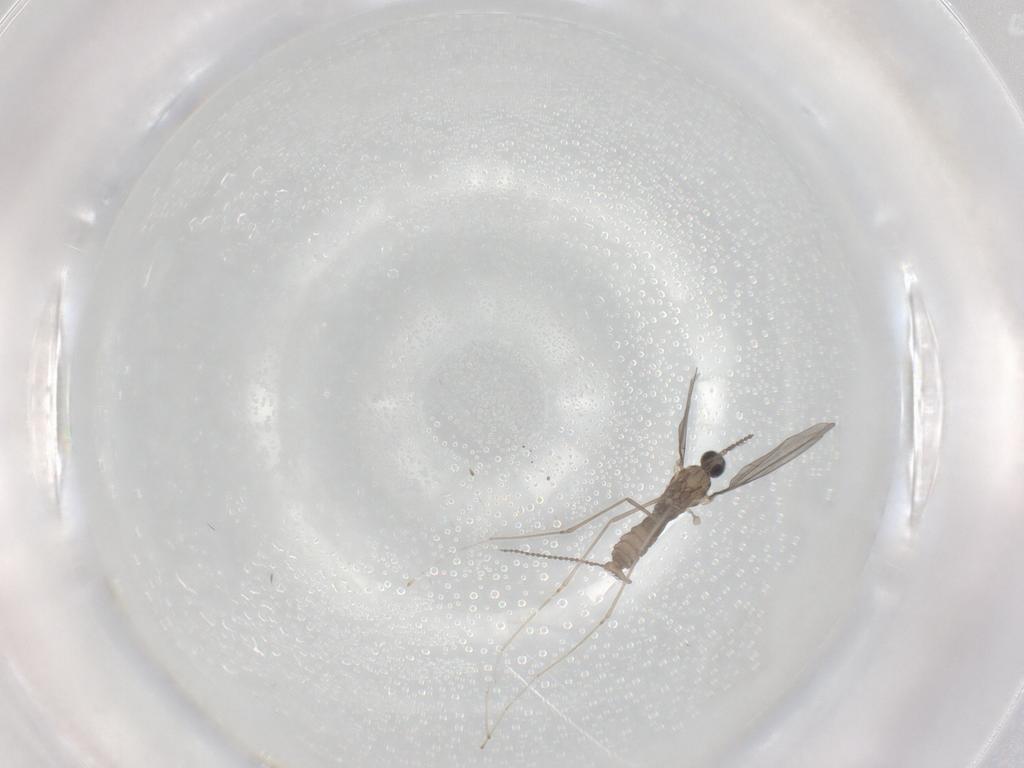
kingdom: Animalia
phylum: Arthropoda
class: Insecta
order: Diptera
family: Cecidomyiidae
